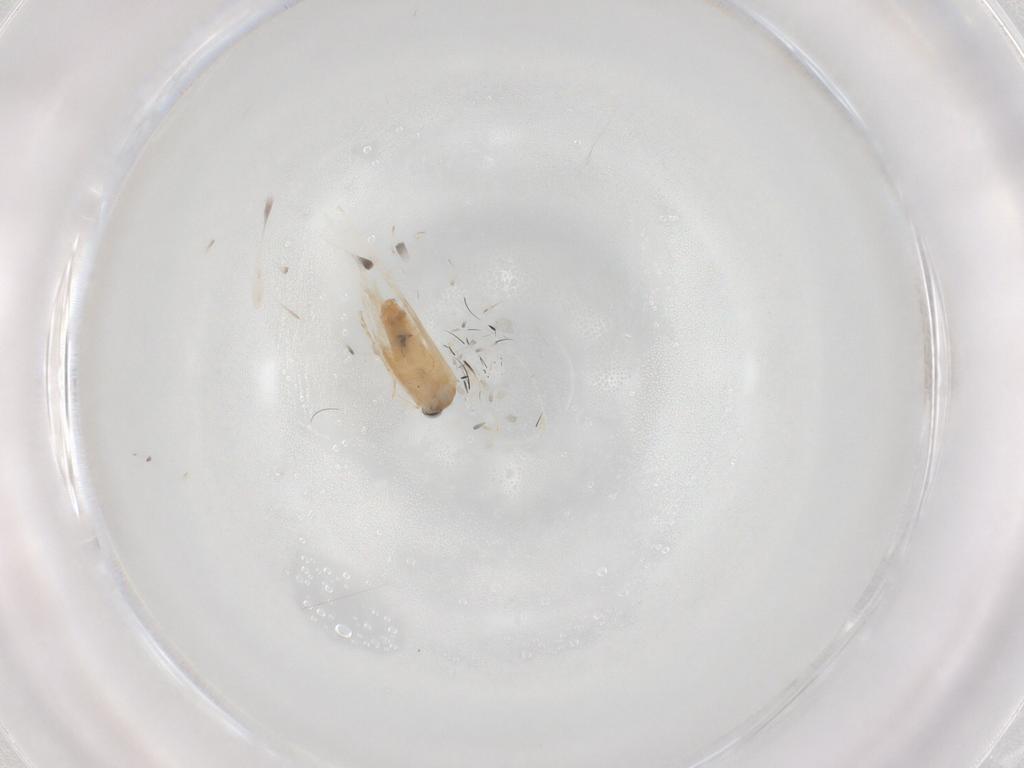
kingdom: Animalia
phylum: Arthropoda
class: Insecta
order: Lepidoptera
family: Nepticulidae
